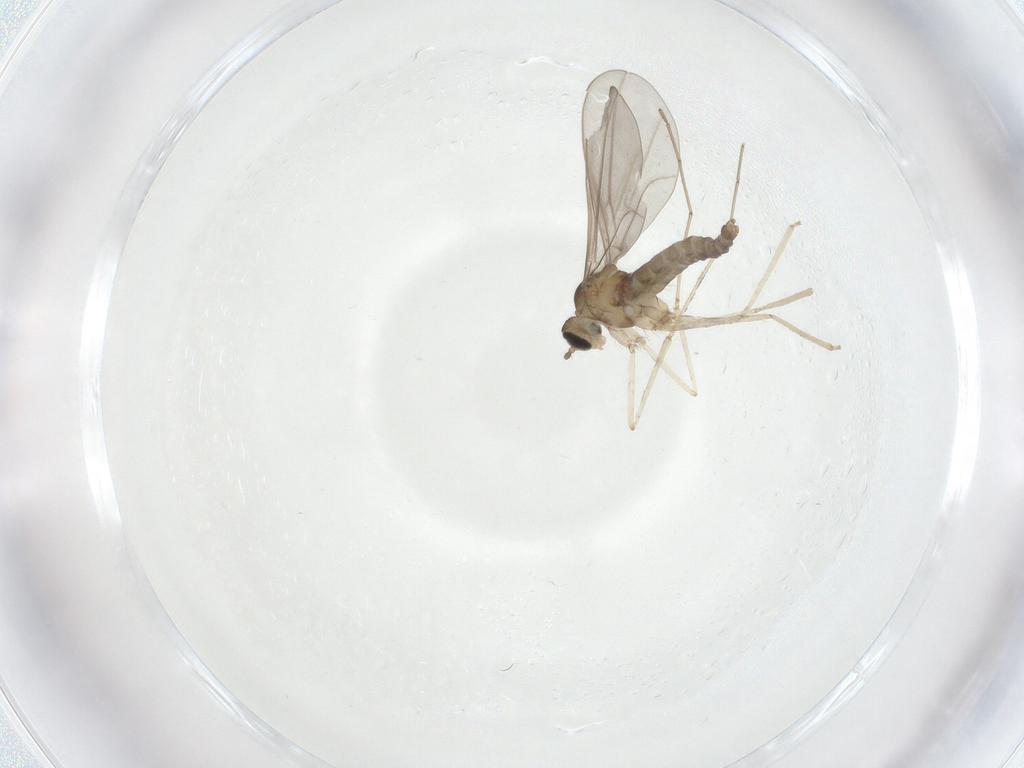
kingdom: Animalia
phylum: Arthropoda
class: Insecta
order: Diptera
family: Cecidomyiidae
